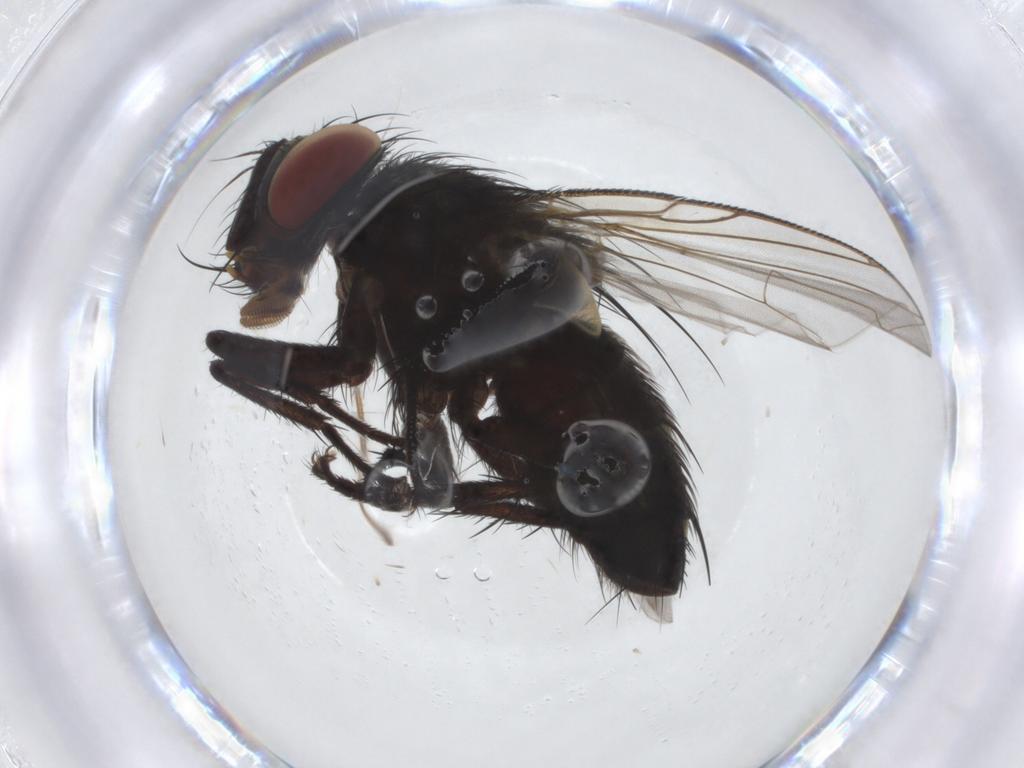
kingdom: Animalia
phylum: Arthropoda
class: Insecta
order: Diptera
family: Tachinidae
